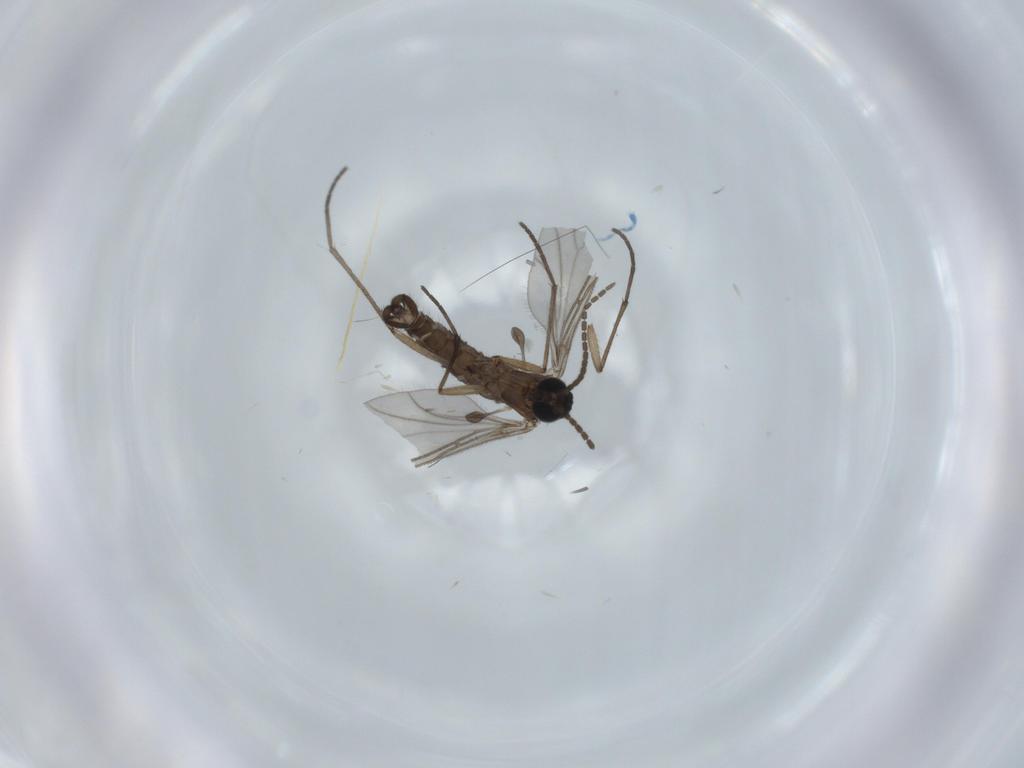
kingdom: Animalia
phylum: Arthropoda
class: Insecta
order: Diptera
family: Sciaridae
